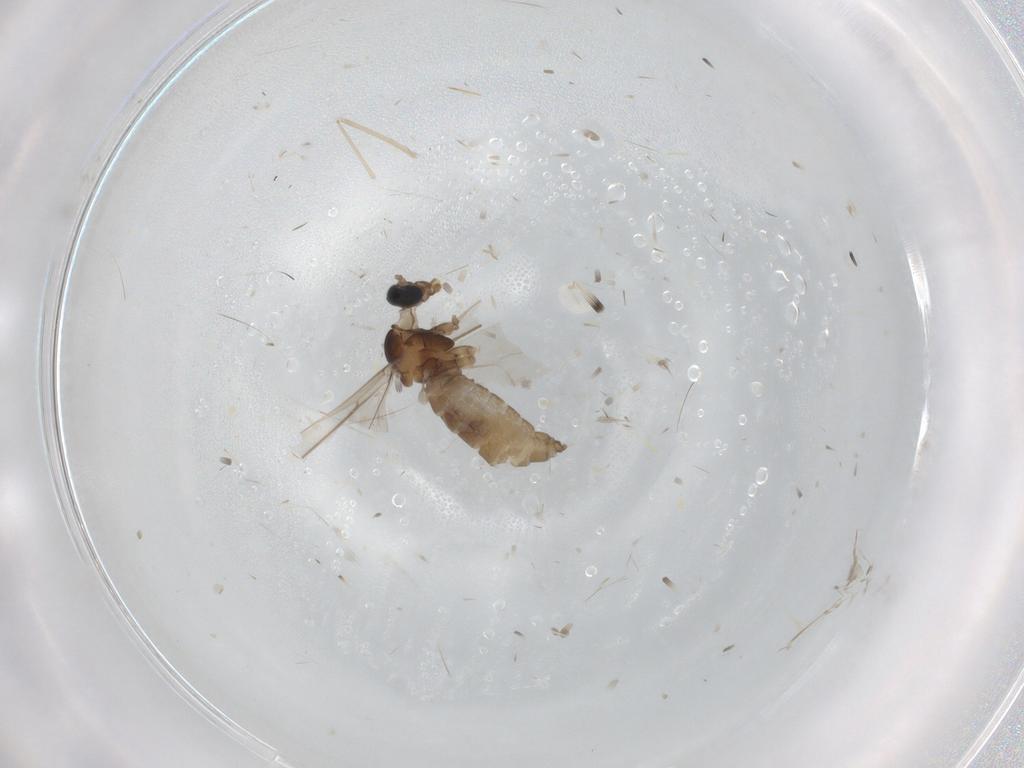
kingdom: Animalia
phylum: Arthropoda
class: Insecta
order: Diptera
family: Cecidomyiidae
